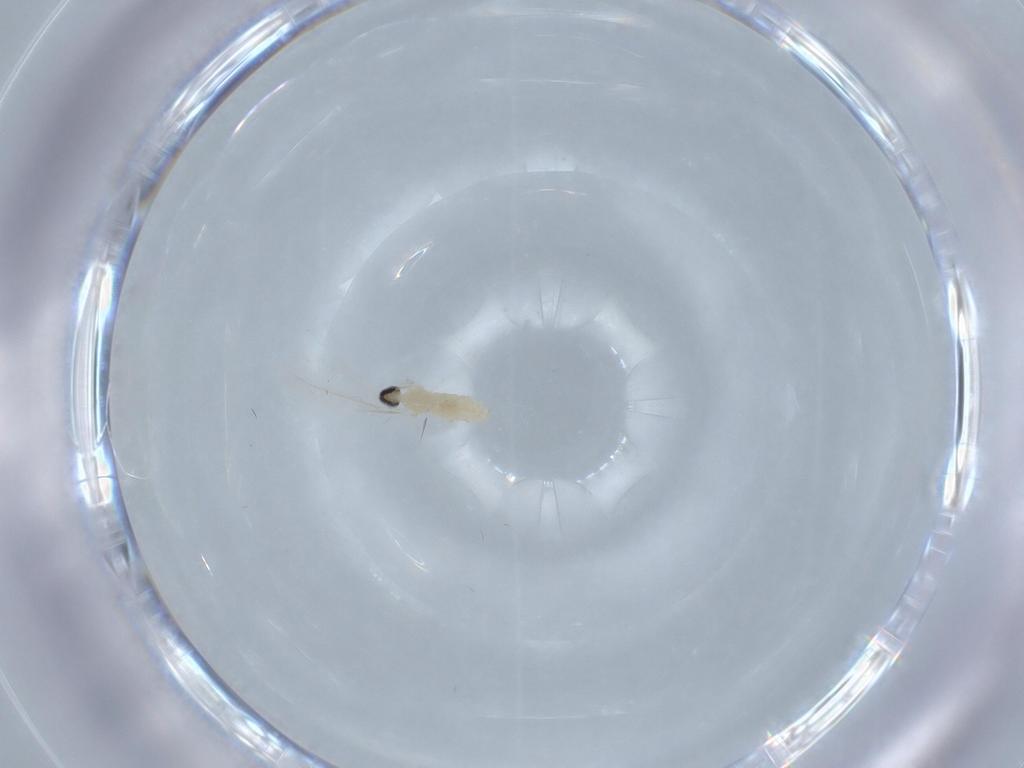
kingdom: Animalia
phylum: Arthropoda
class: Insecta
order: Diptera
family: Cecidomyiidae
